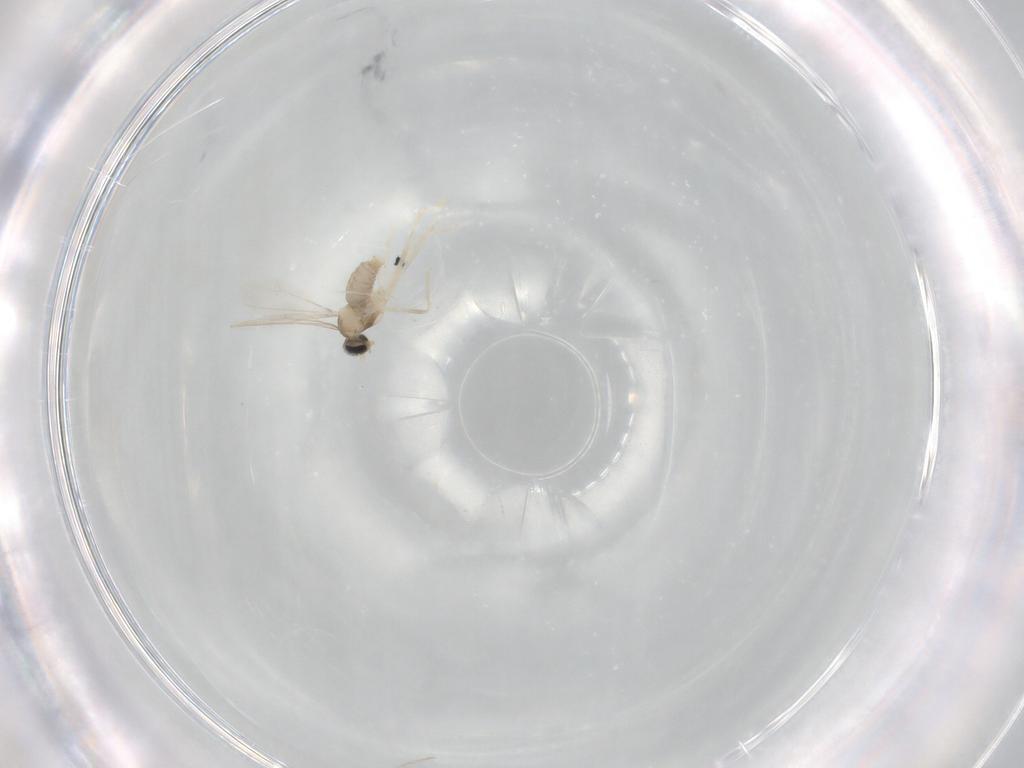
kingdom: Animalia
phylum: Arthropoda
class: Insecta
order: Diptera
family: Cecidomyiidae
